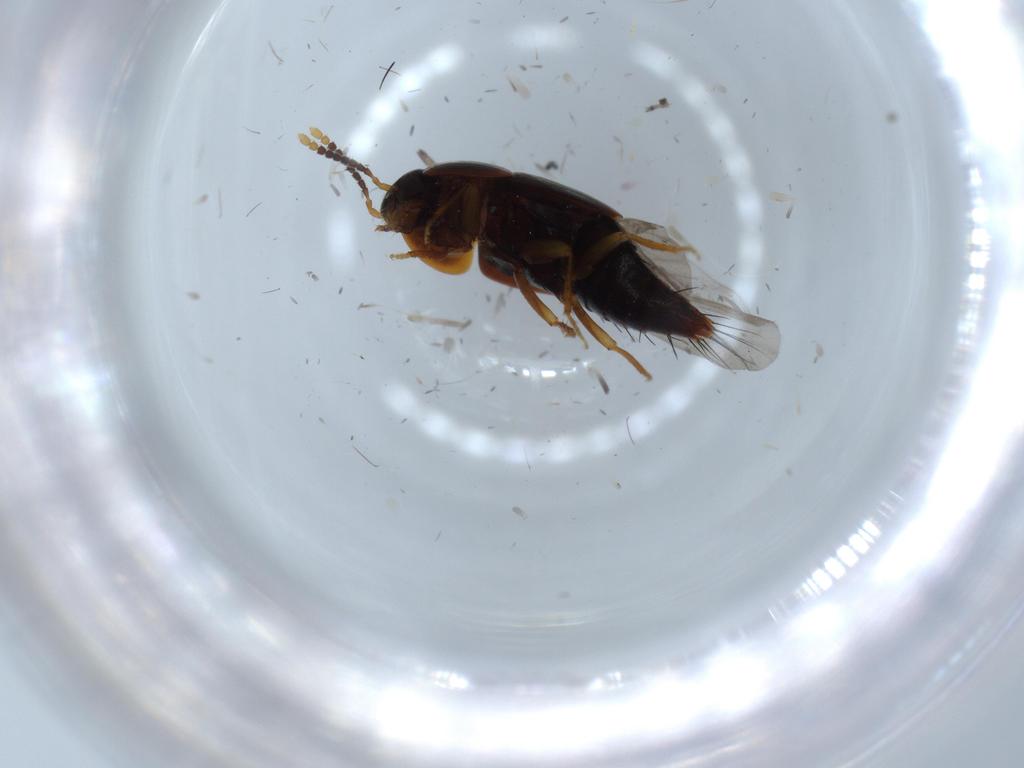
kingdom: Animalia
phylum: Arthropoda
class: Insecta
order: Coleoptera
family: Staphylinidae
